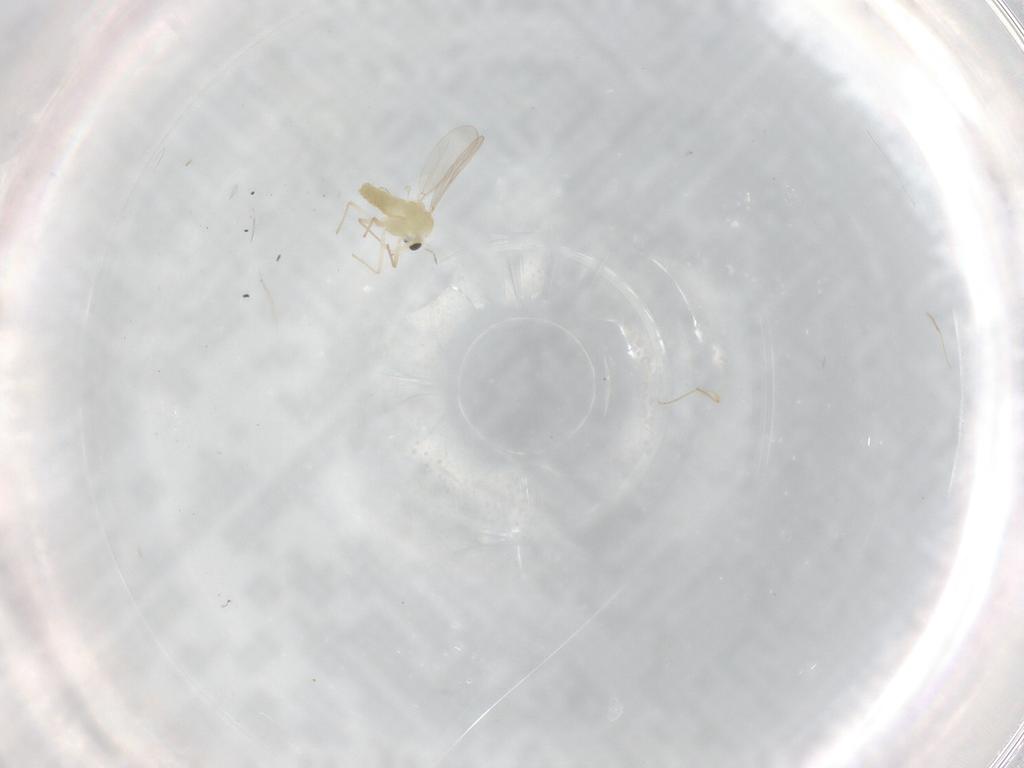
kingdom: Animalia
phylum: Arthropoda
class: Insecta
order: Diptera
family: Chironomidae
